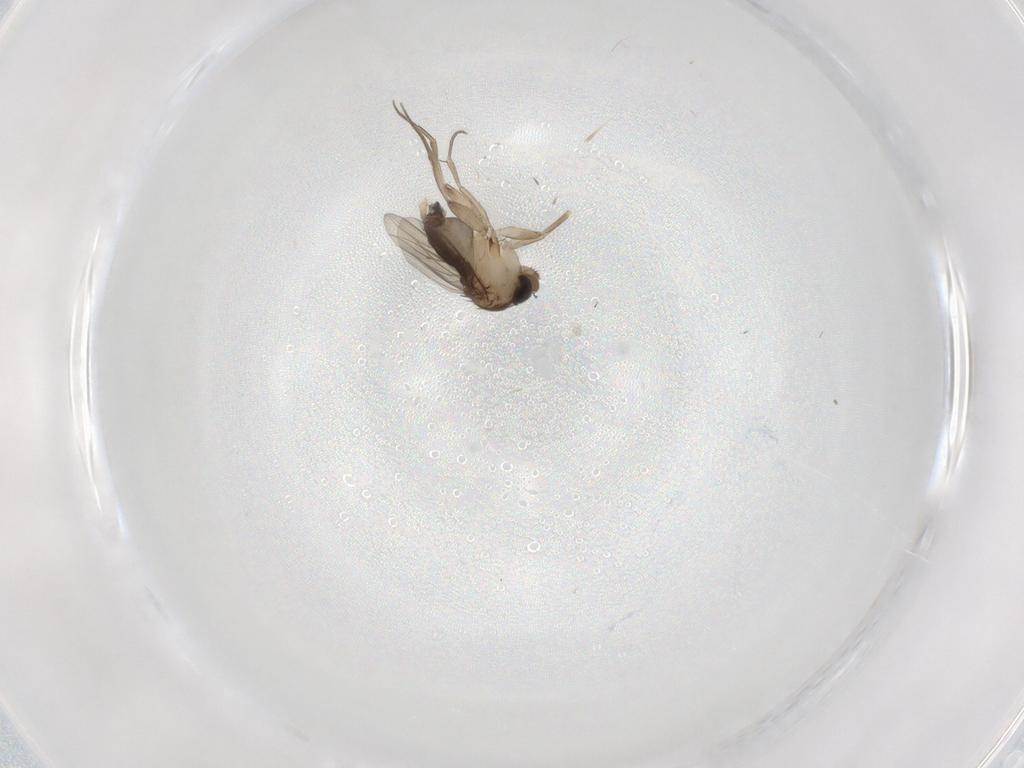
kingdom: Animalia
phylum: Arthropoda
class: Insecta
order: Diptera
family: Phoridae
